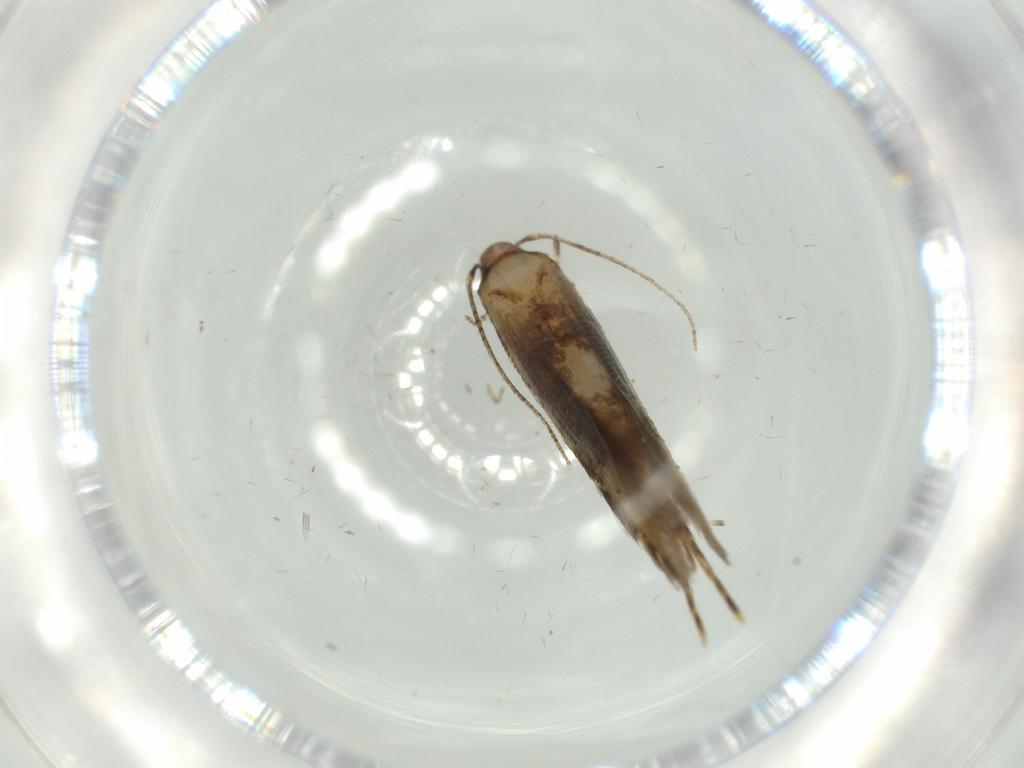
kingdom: Animalia
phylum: Arthropoda
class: Insecta
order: Lepidoptera
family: Stathmopodidae
